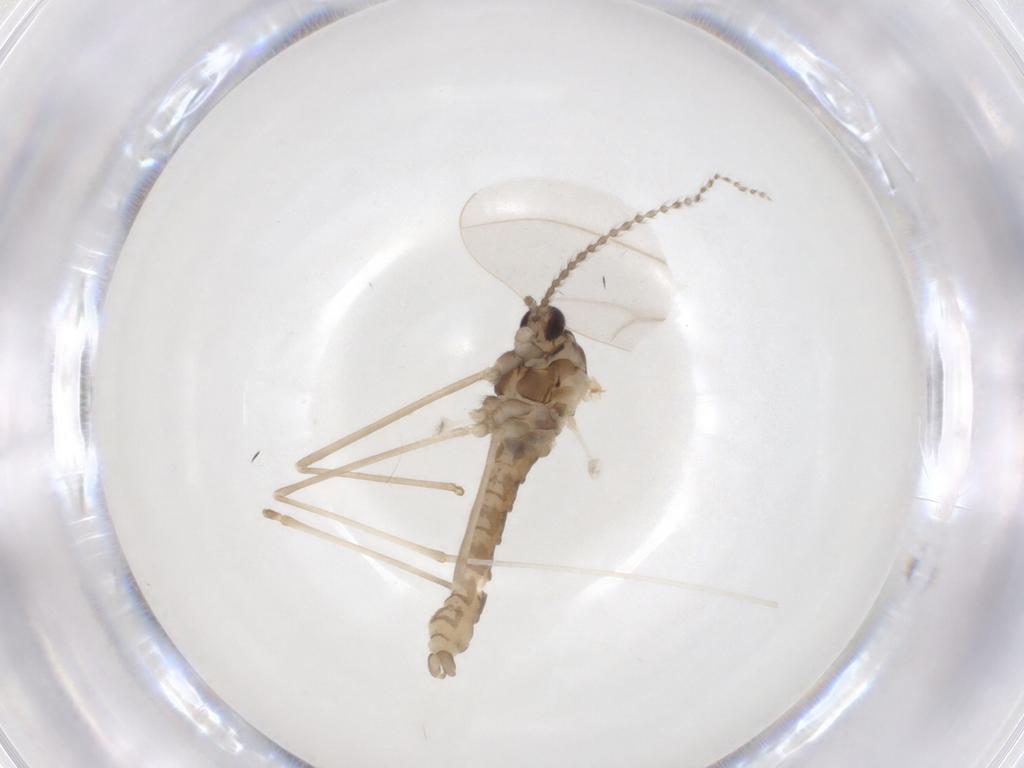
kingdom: Animalia
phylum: Arthropoda
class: Insecta
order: Diptera
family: Cecidomyiidae
